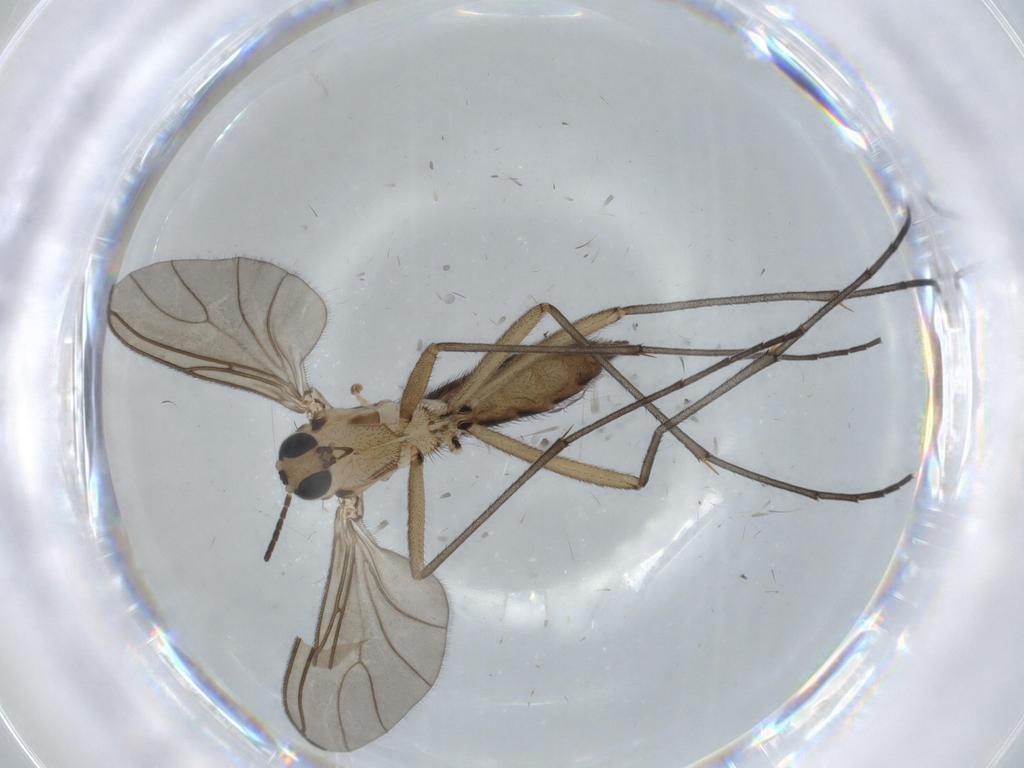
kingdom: Animalia
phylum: Arthropoda
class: Insecta
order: Diptera
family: Sciaridae
